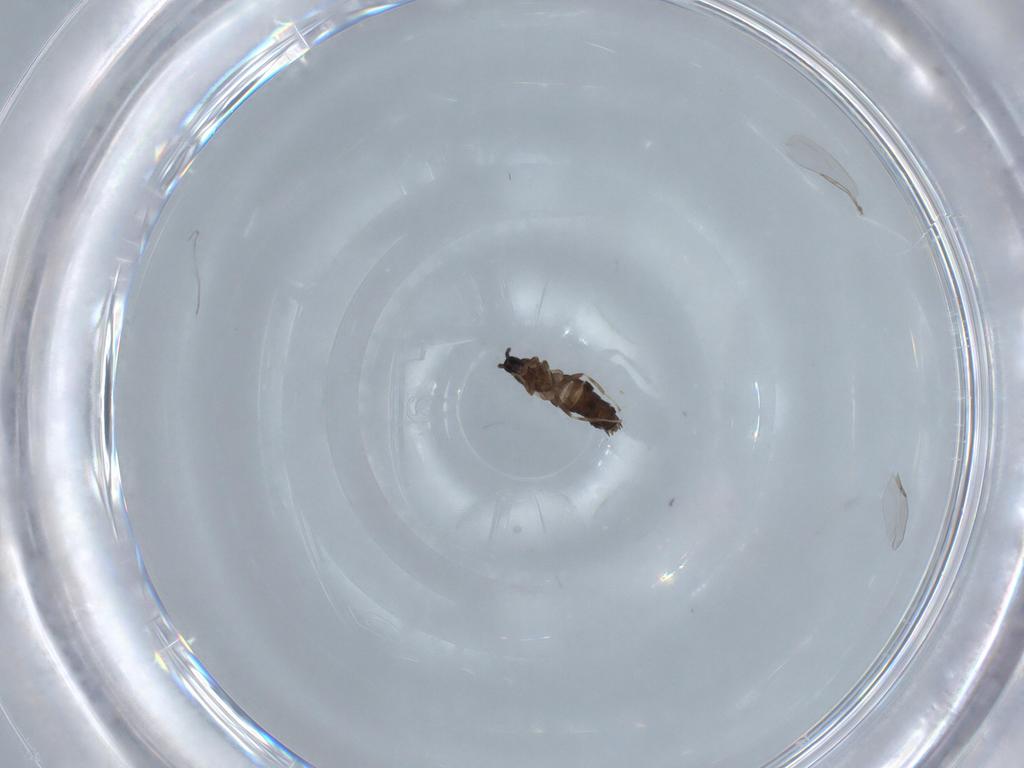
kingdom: Animalia
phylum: Arthropoda
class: Insecta
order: Diptera
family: Scatopsidae
